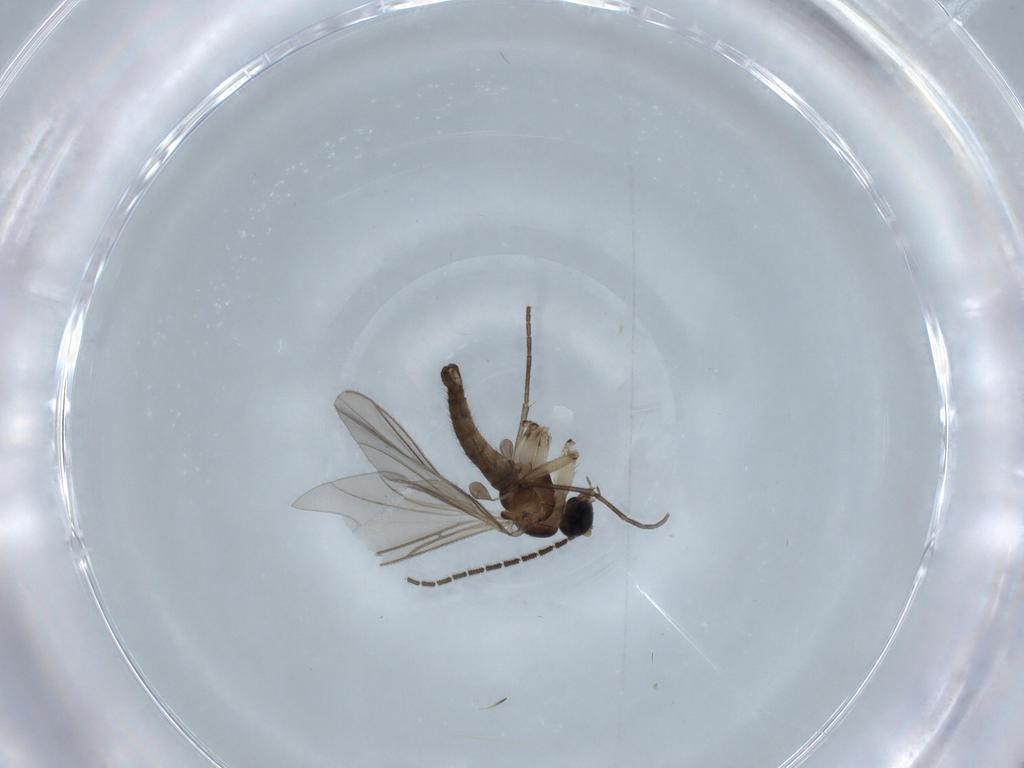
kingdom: Animalia
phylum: Arthropoda
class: Insecta
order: Diptera
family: Sciaridae
